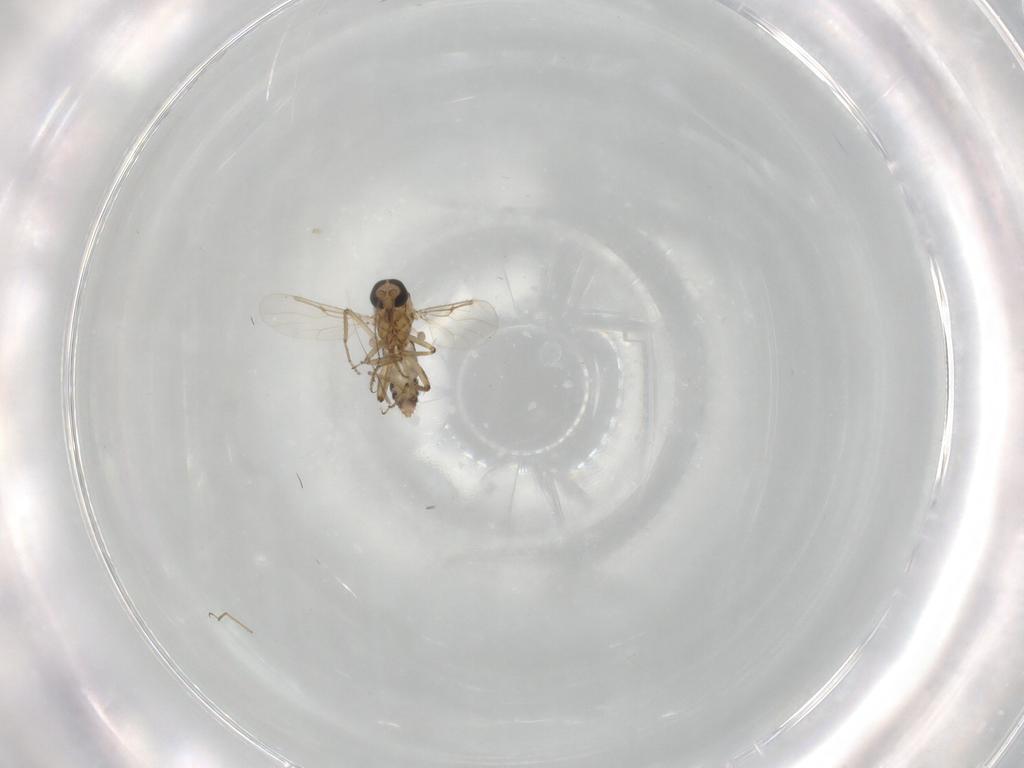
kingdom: Animalia
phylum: Arthropoda
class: Insecta
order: Diptera
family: Ceratopogonidae
